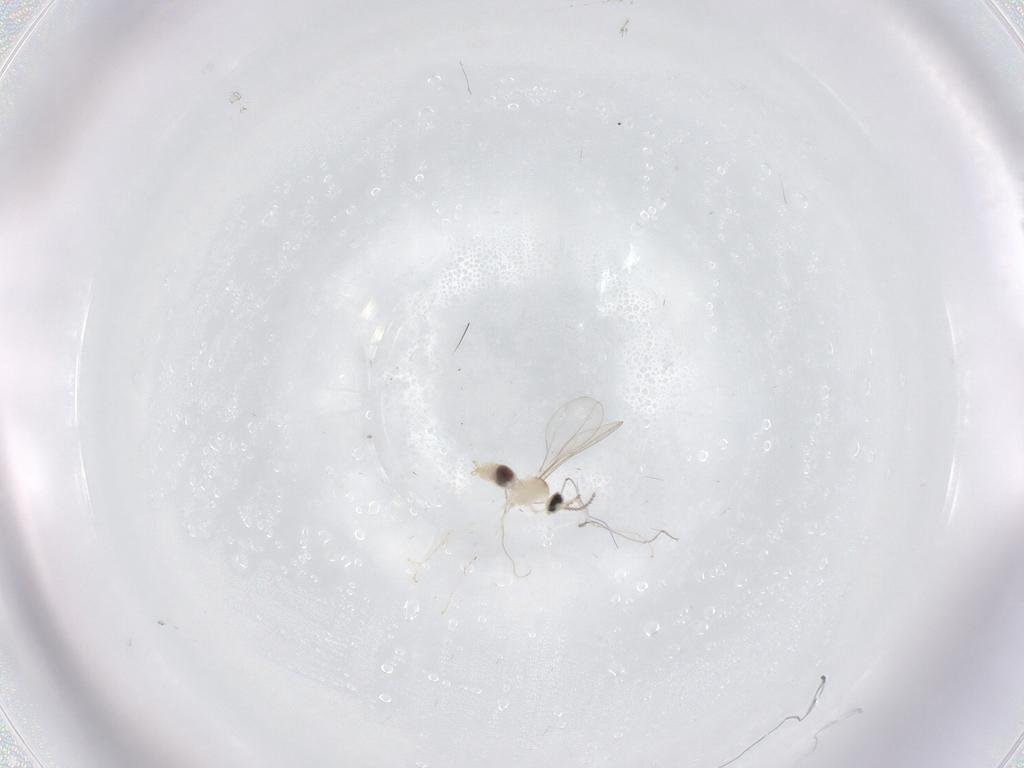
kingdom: Animalia
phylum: Arthropoda
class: Insecta
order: Diptera
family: Cecidomyiidae
